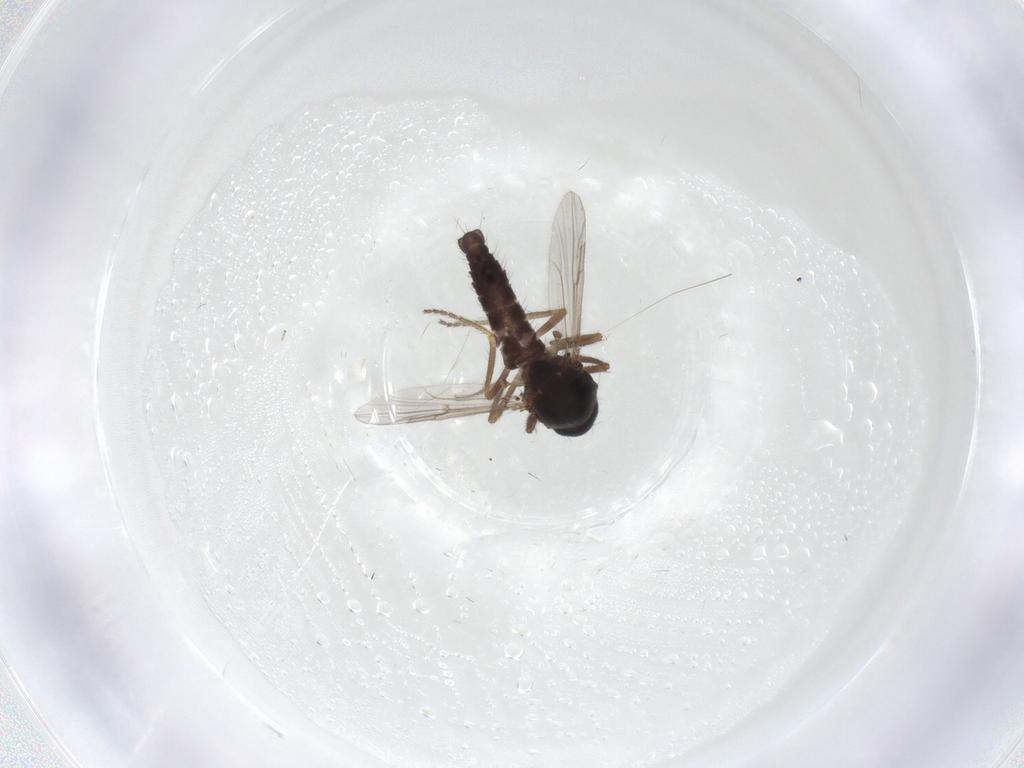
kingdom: Animalia
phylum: Arthropoda
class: Insecta
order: Diptera
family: Ceratopogonidae
